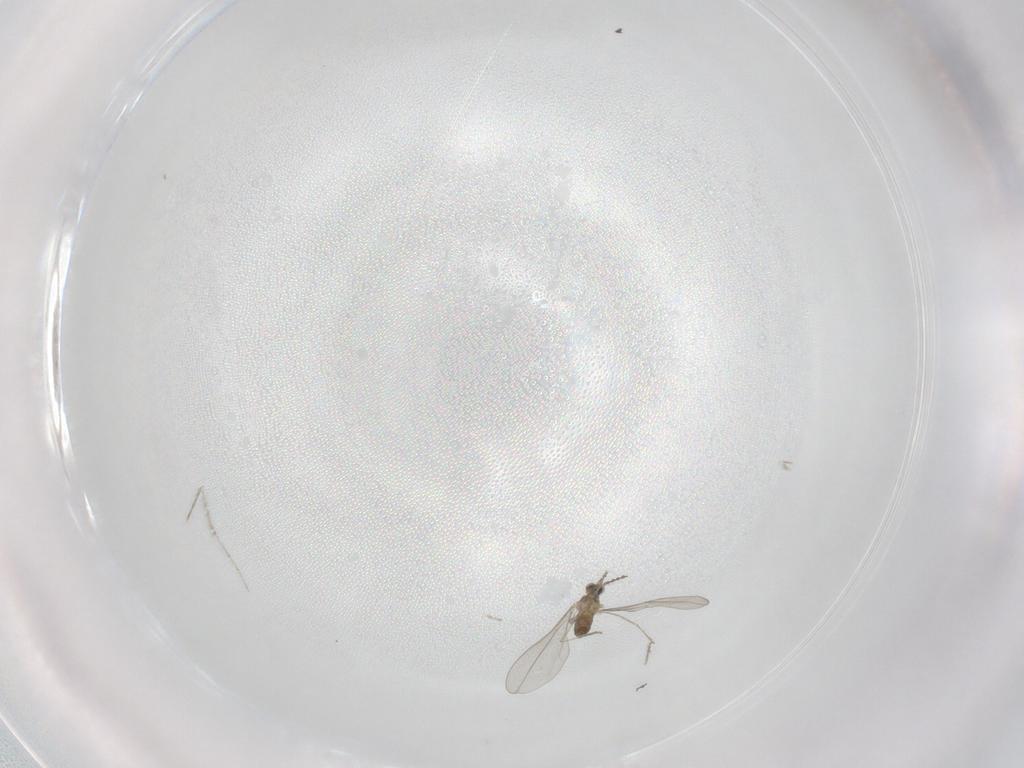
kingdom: Animalia
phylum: Arthropoda
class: Insecta
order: Diptera
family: Cecidomyiidae
